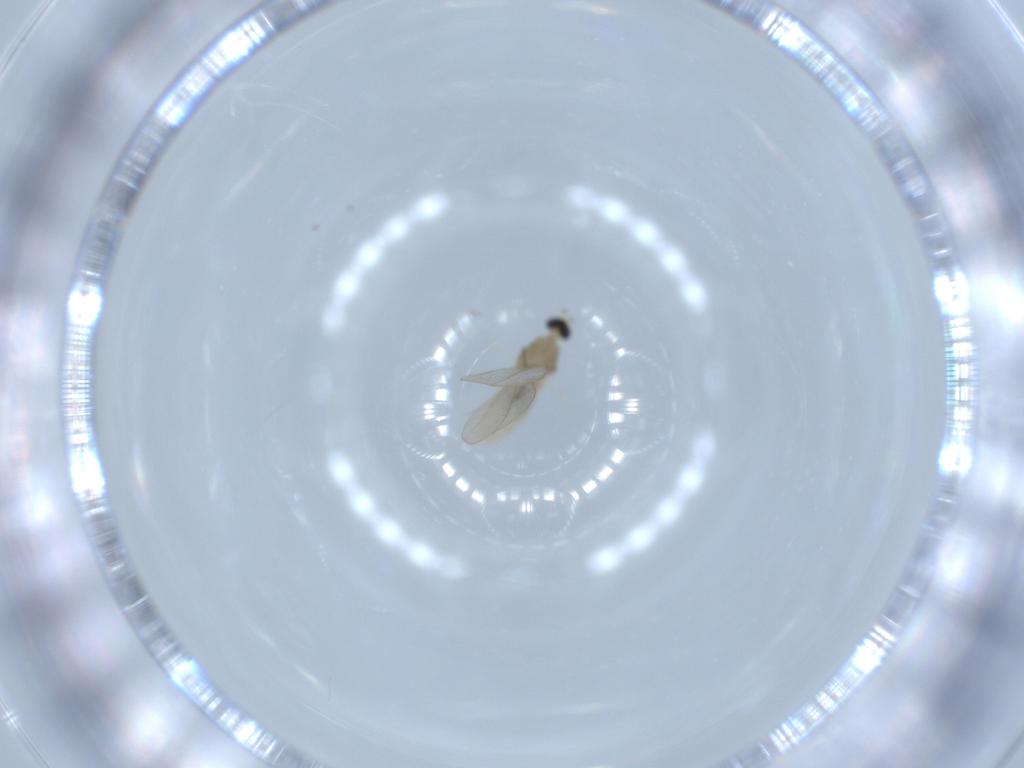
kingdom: Animalia
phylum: Arthropoda
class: Insecta
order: Diptera
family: Cecidomyiidae
